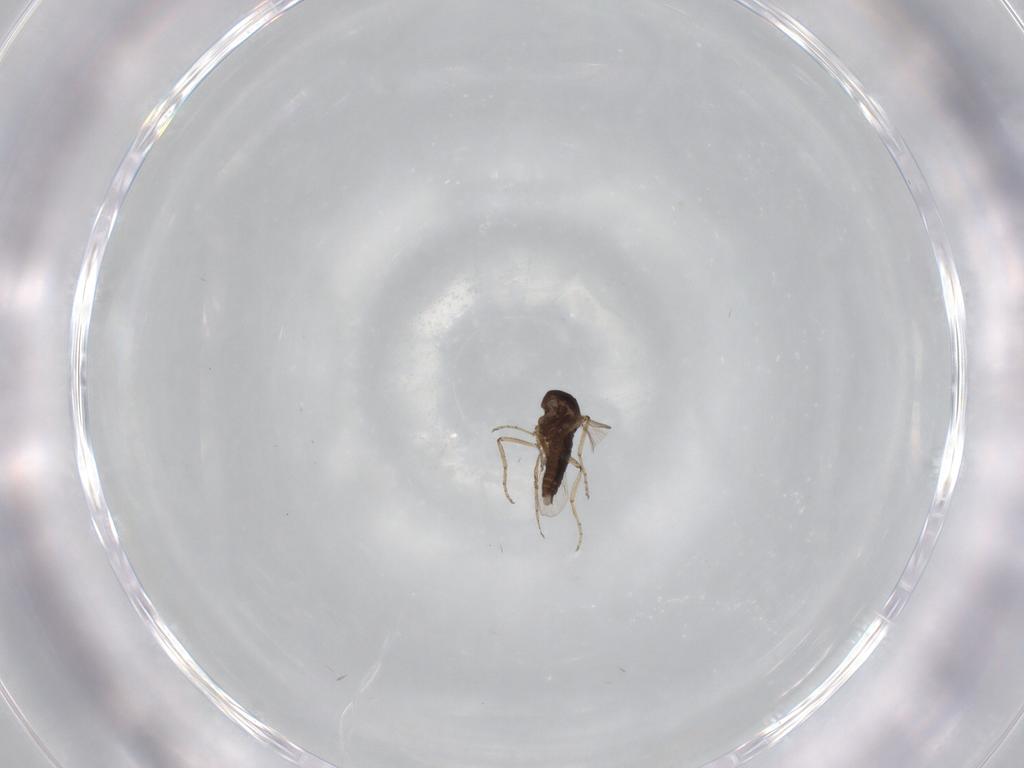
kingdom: Animalia
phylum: Arthropoda
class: Insecta
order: Diptera
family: Ceratopogonidae
